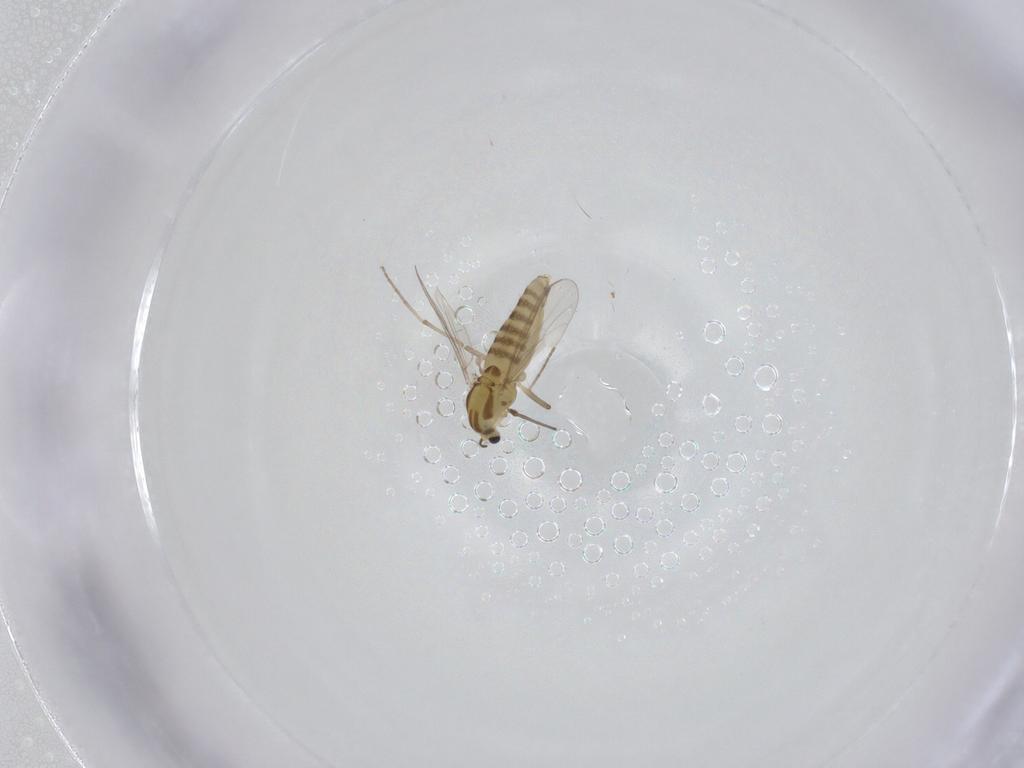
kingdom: Animalia
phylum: Arthropoda
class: Insecta
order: Diptera
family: Chironomidae
